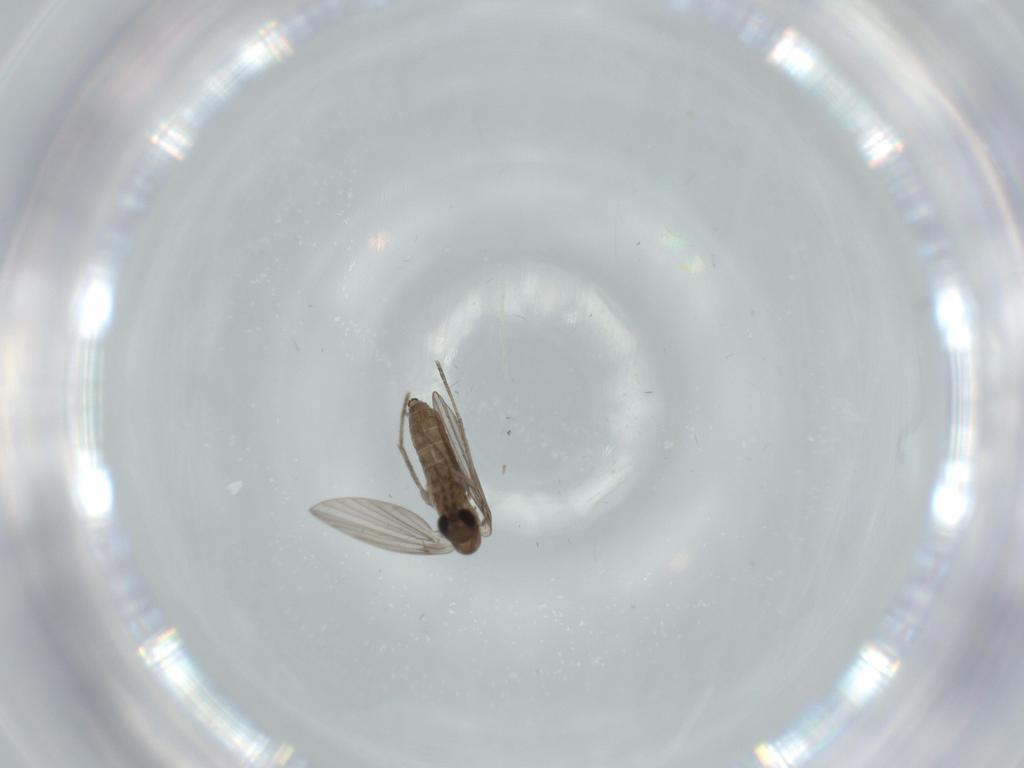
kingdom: Animalia
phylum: Arthropoda
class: Insecta
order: Diptera
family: Psychodidae
